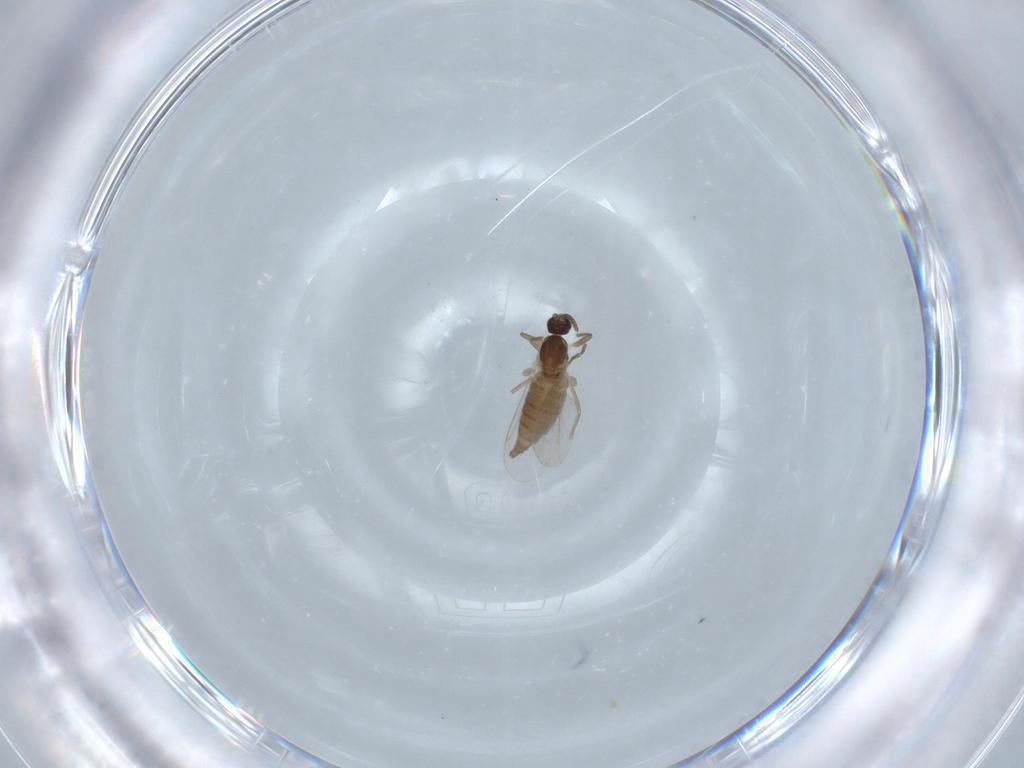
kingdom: Animalia
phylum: Arthropoda
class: Insecta
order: Diptera
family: Cecidomyiidae
